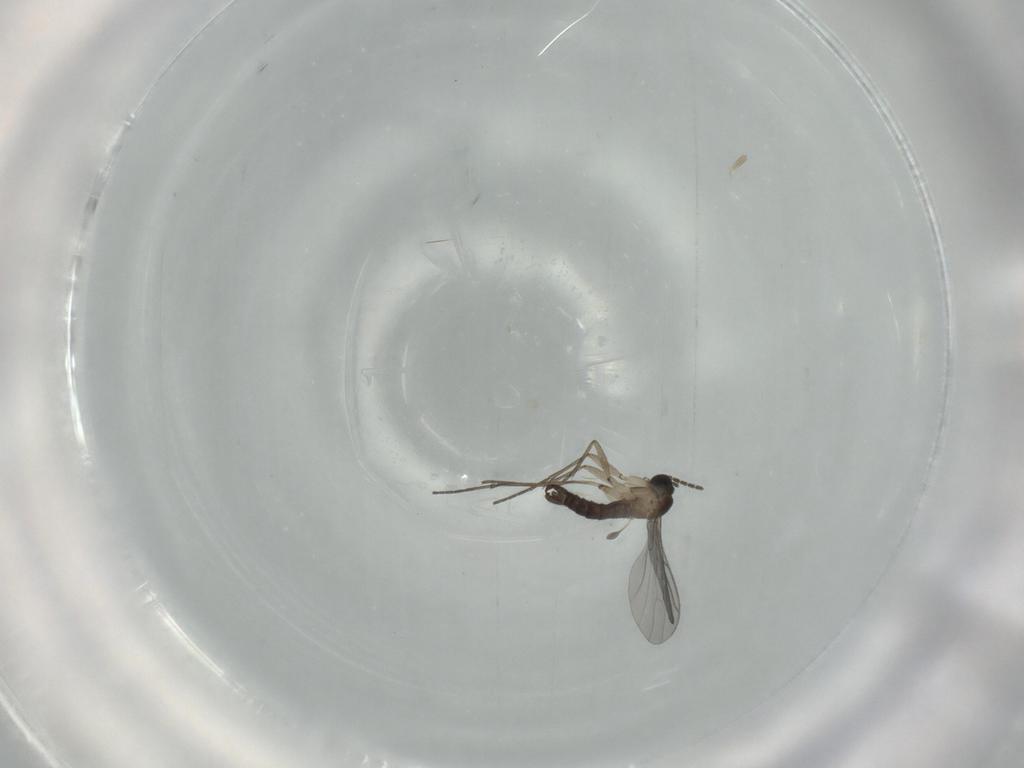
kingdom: Animalia
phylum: Arthropoda
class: Insecta
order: Diptera
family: Sciaridae
